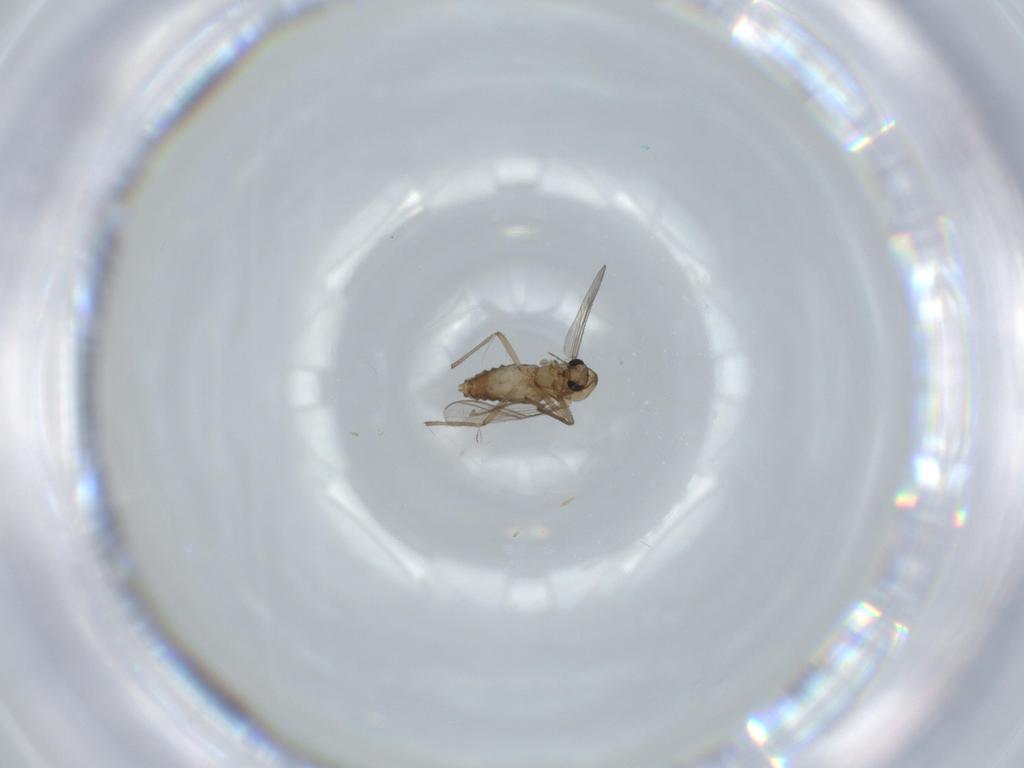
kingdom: Animalia
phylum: Arthropoda
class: Insecta
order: Diptera
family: Chironomidae
